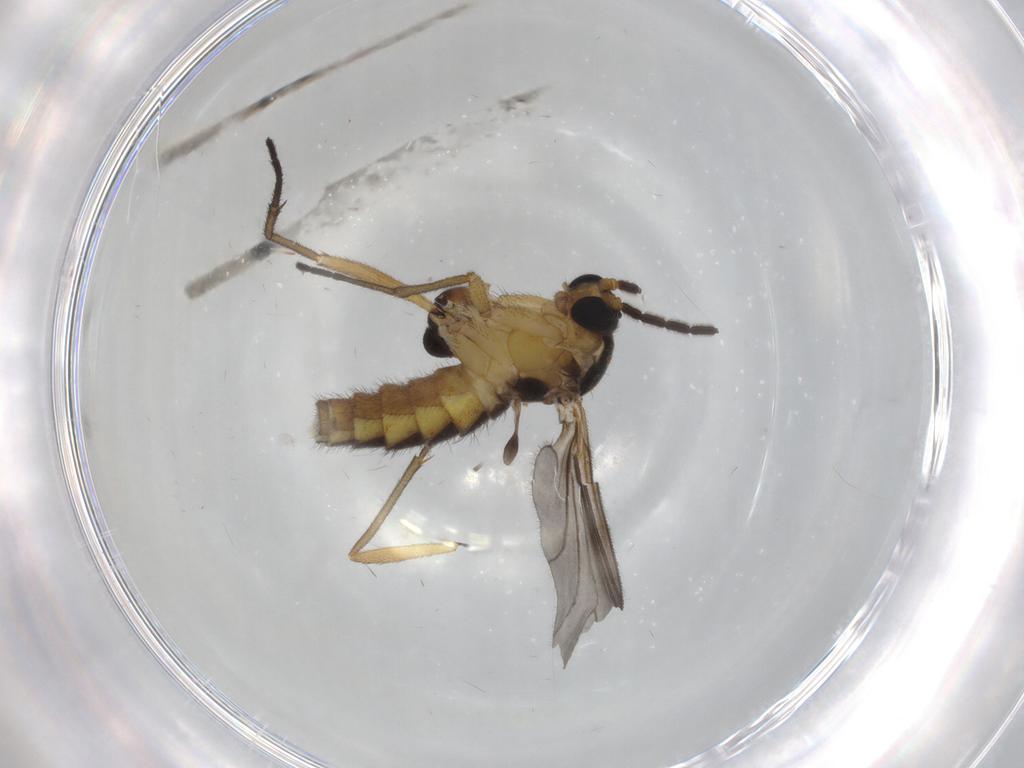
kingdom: Animalia
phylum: Arthropoda
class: Insecta
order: Diptera
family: Sciaridae
